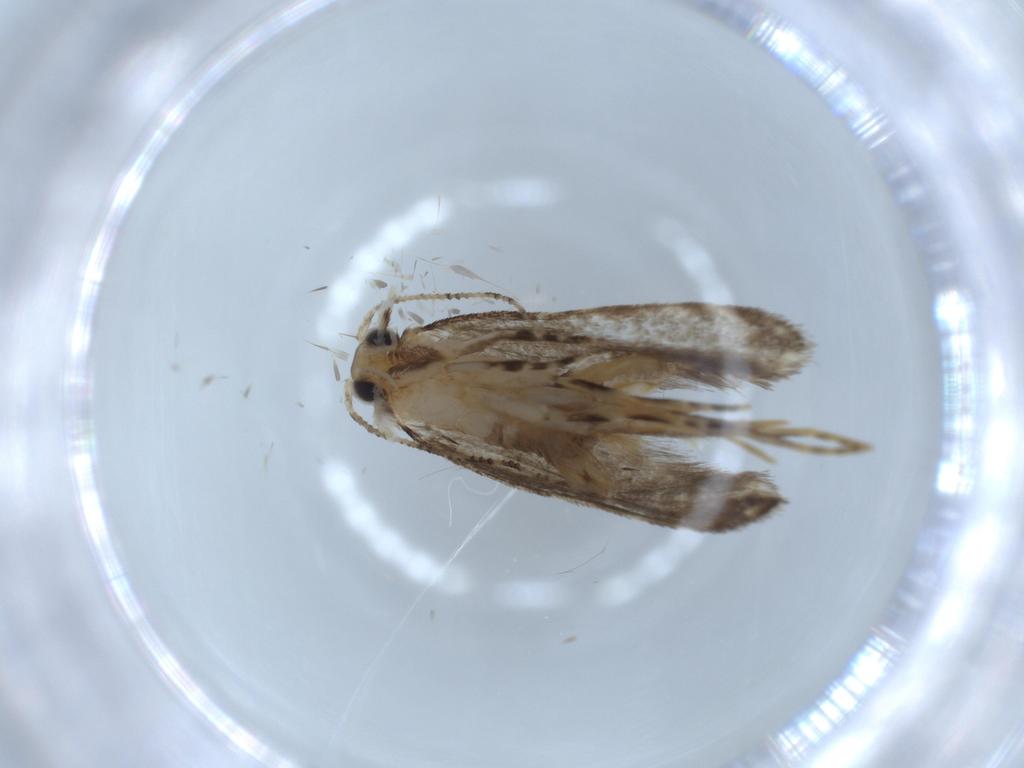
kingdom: Animalia
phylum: Arthropoda
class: Insecta
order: Lepidoptera
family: Tineidae
